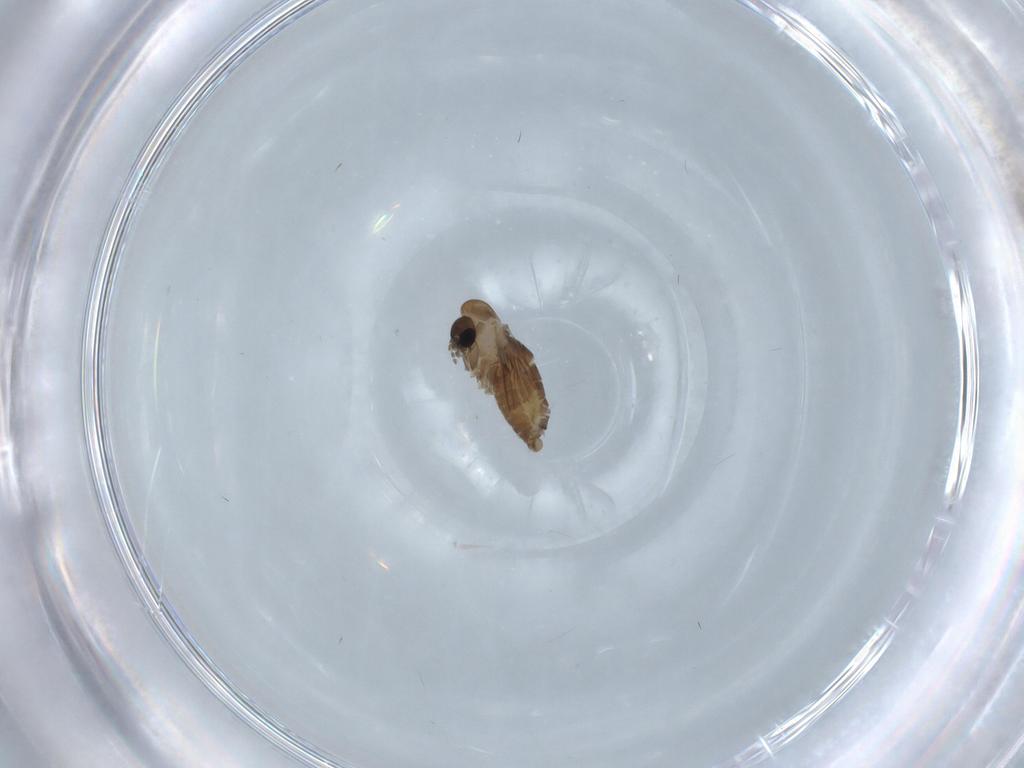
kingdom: Animalia
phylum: Arthropoda
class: Insecta
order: Diptera
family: Psychodidae
